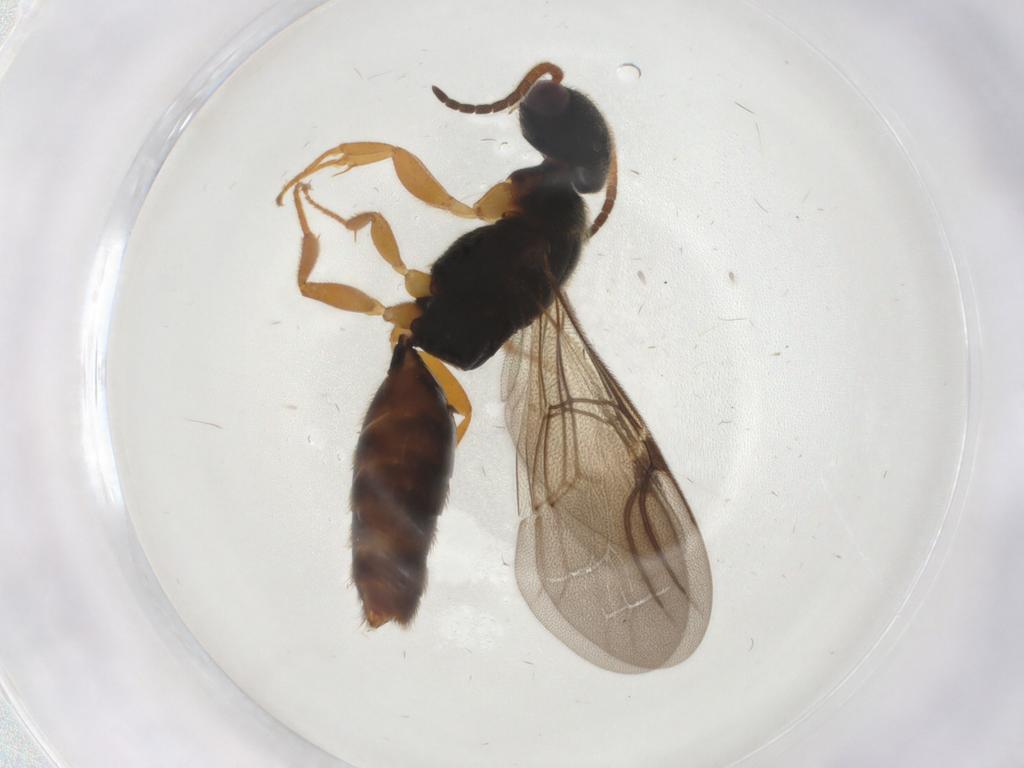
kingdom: Animalia
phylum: Arthropoda
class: Insecta
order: Hymenoptera
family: Bethylidae
